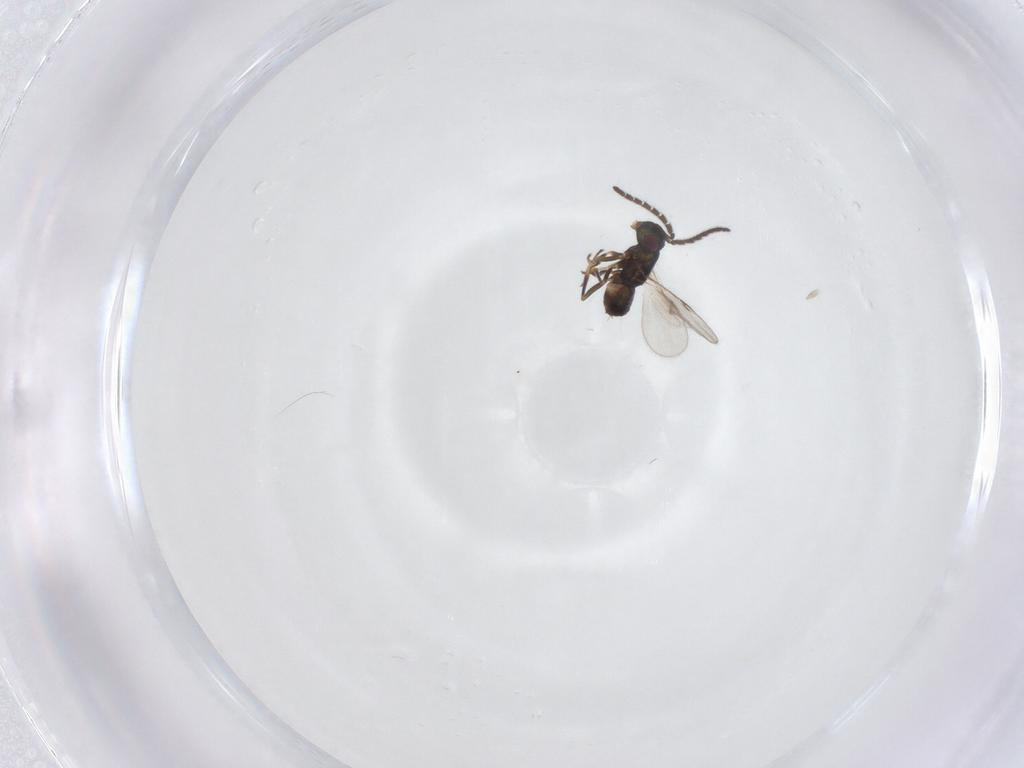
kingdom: Animalia
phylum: Arthropoda
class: Insecta
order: Hymenoptera
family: Encyrtidae
